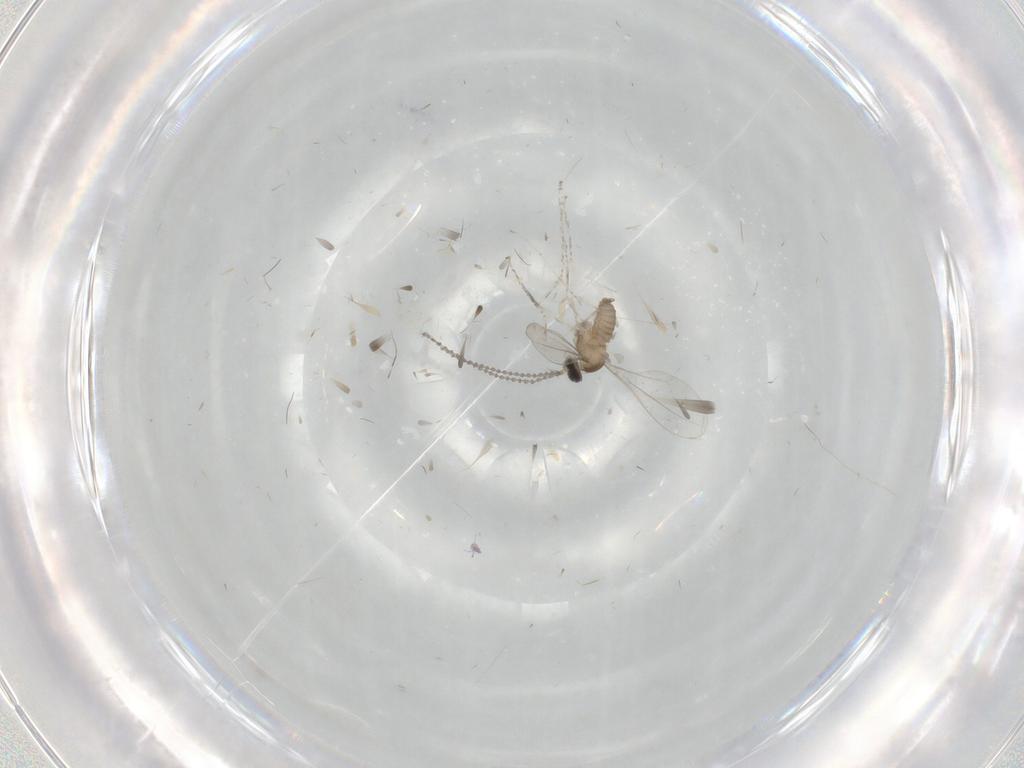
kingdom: Animalia
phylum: Arthropoda
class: Insecta
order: Diptera
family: Cecidomyiidae
